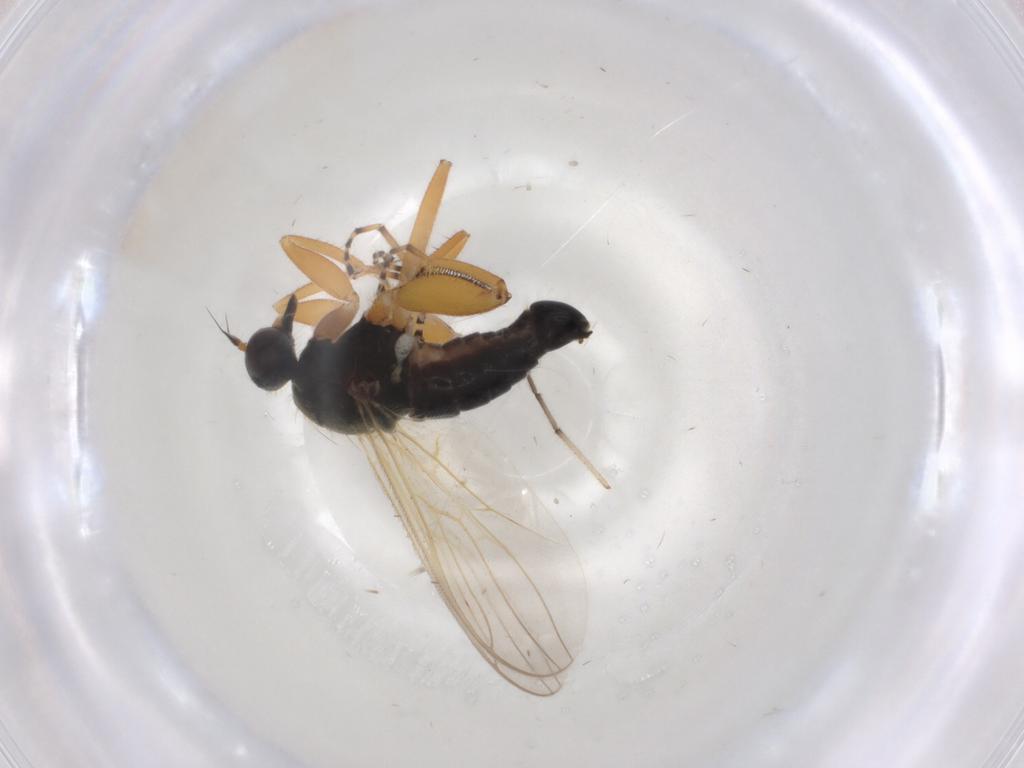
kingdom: Animalia
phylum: Arthropoda
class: Insecta
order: Diptera
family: Hybotidae
